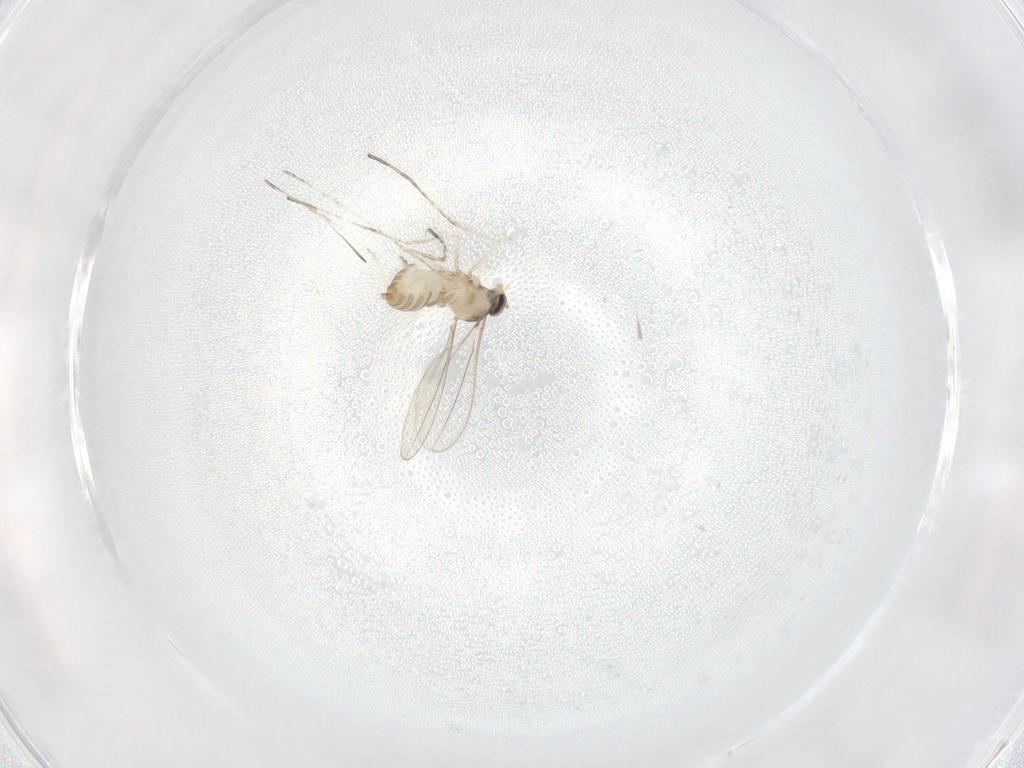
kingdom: Animalia
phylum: Arthropoda
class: Insecta
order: Diptera
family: Cecidomyiidae
